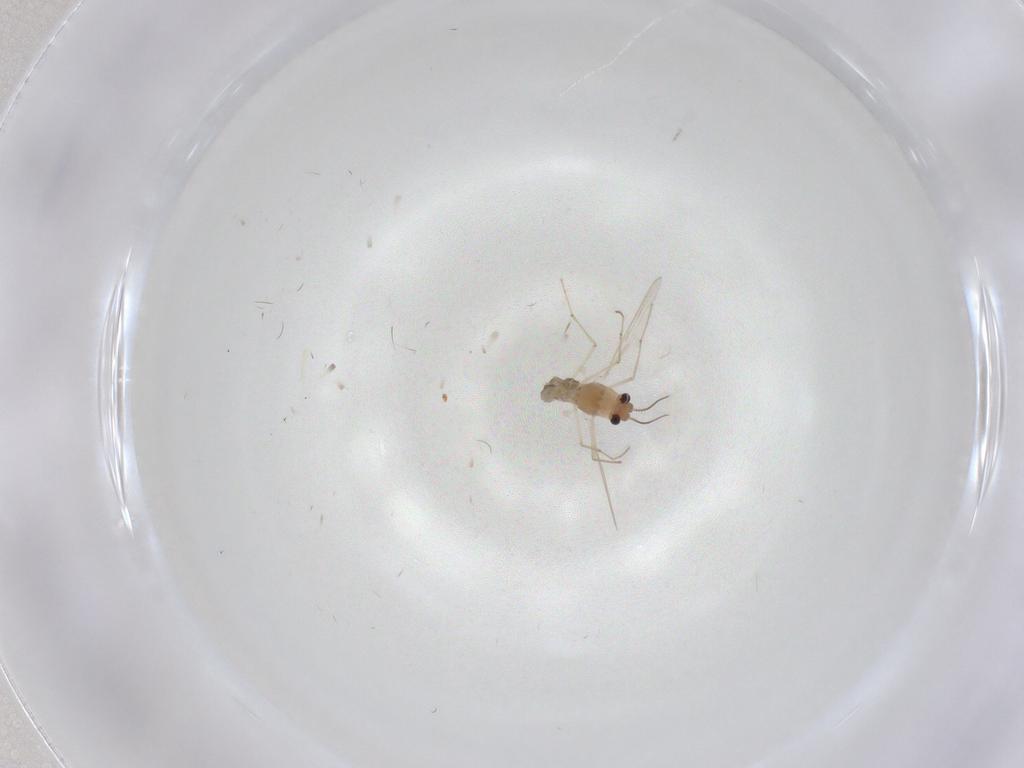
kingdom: Animalia
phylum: Arthropoda
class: Insecta
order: Diptera
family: Chironomidae
